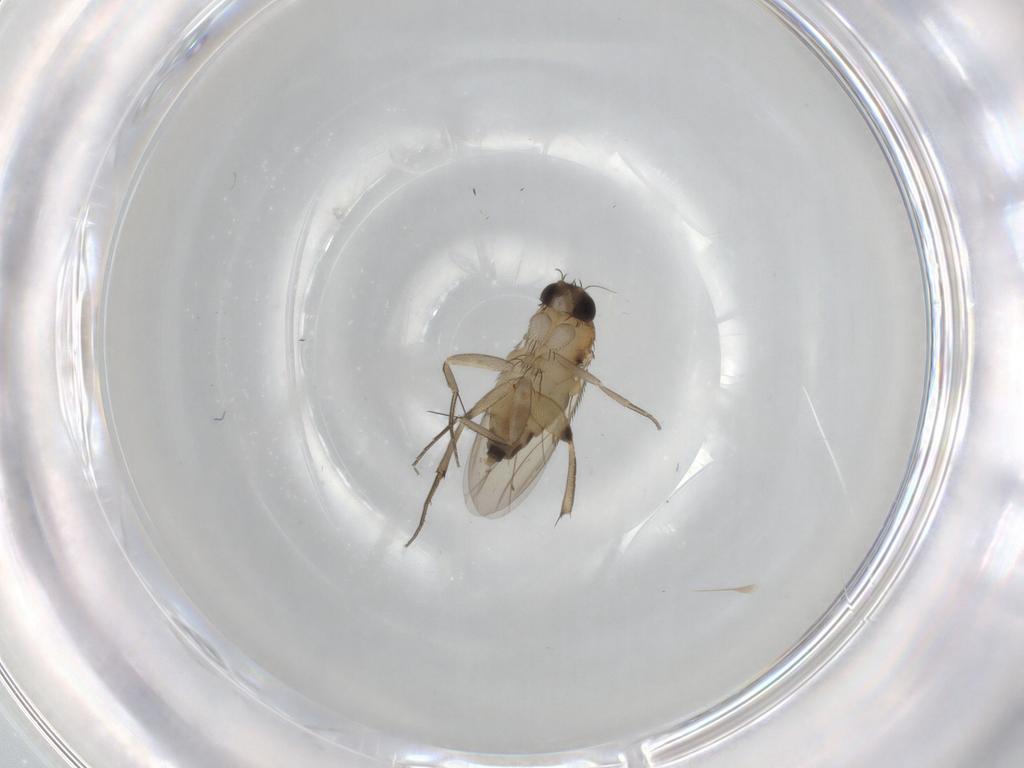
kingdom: Animalia
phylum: Arthropoda
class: Insecta
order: Diptera
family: Phoridae
